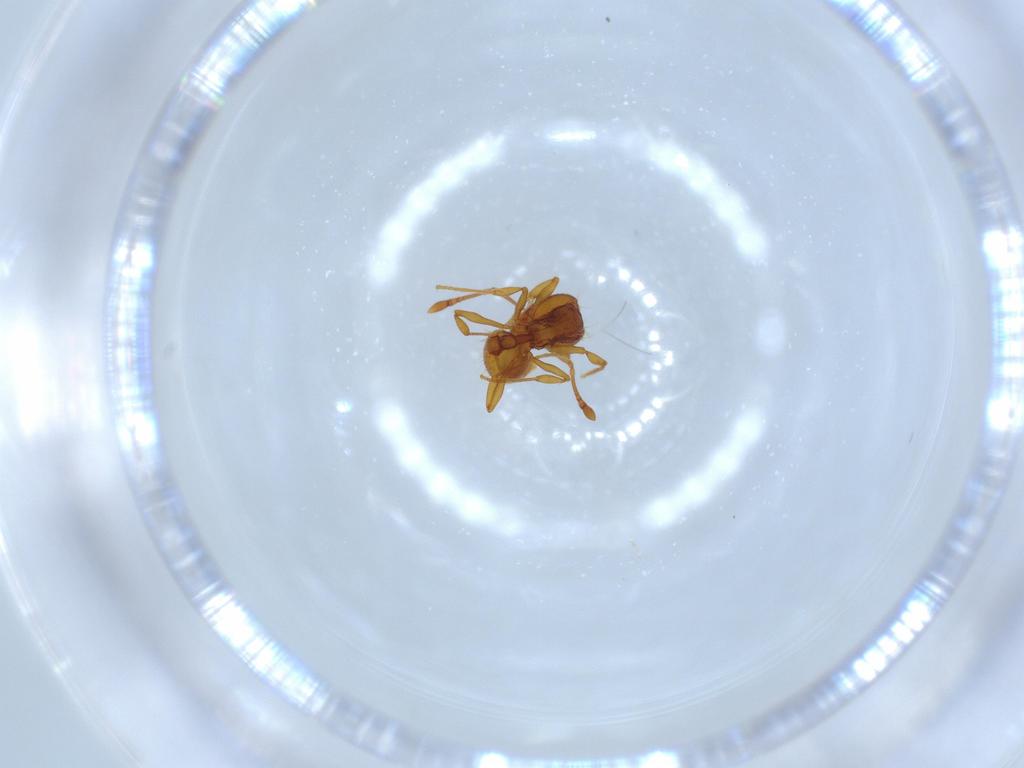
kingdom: Animalia
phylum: Arthropoda
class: Insecta
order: Hymenoptera
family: Formicidae
